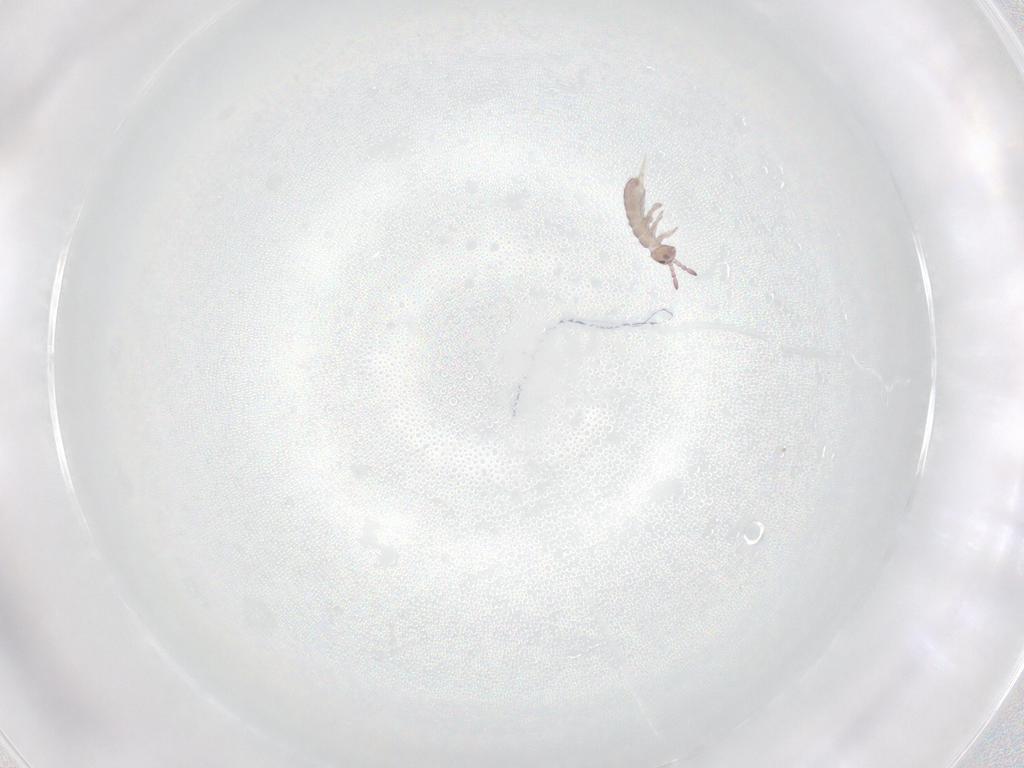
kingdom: Animalia
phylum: Arthropoda
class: Collembola
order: Entomobryomorpha
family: Isotomidae
